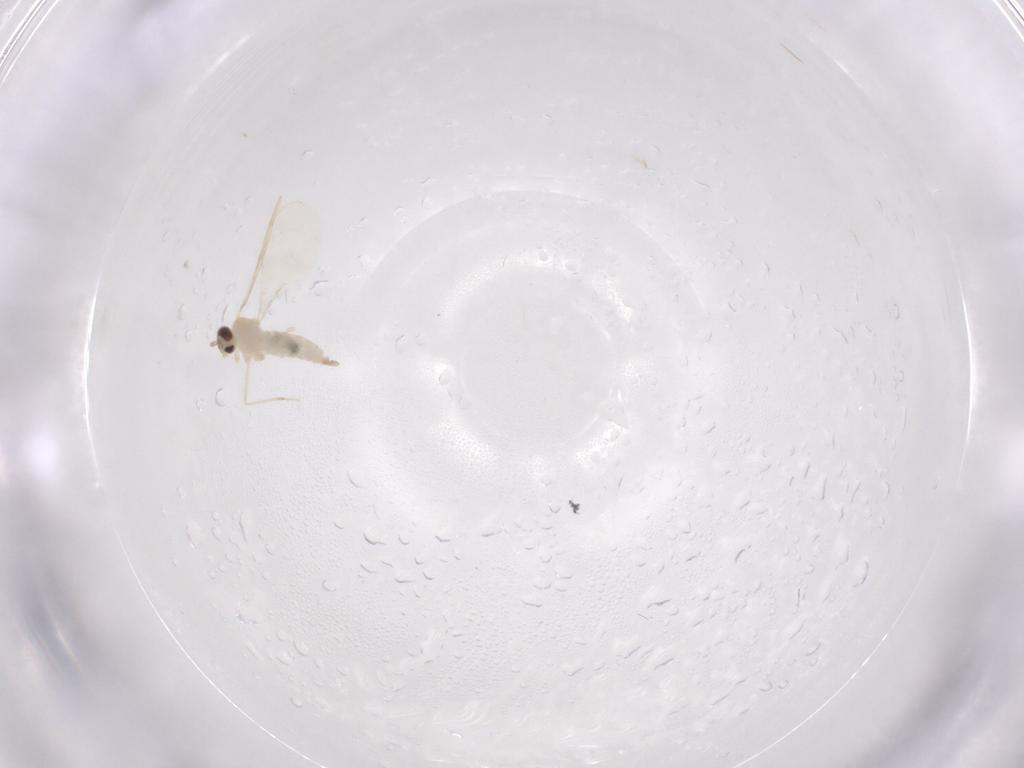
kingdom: Animalia
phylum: Arthropoda
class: Insecta
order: Diptera
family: Cecidomyiidae
